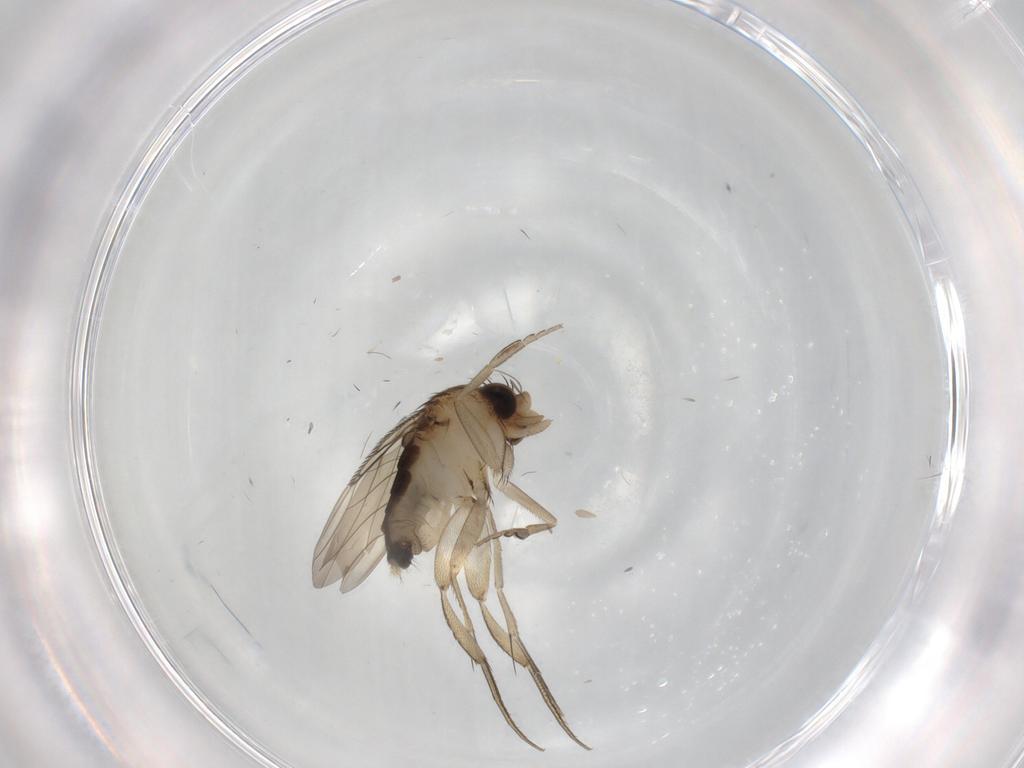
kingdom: Animalia
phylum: Arthropoda
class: Insecta
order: Diptera
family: Phoridae
